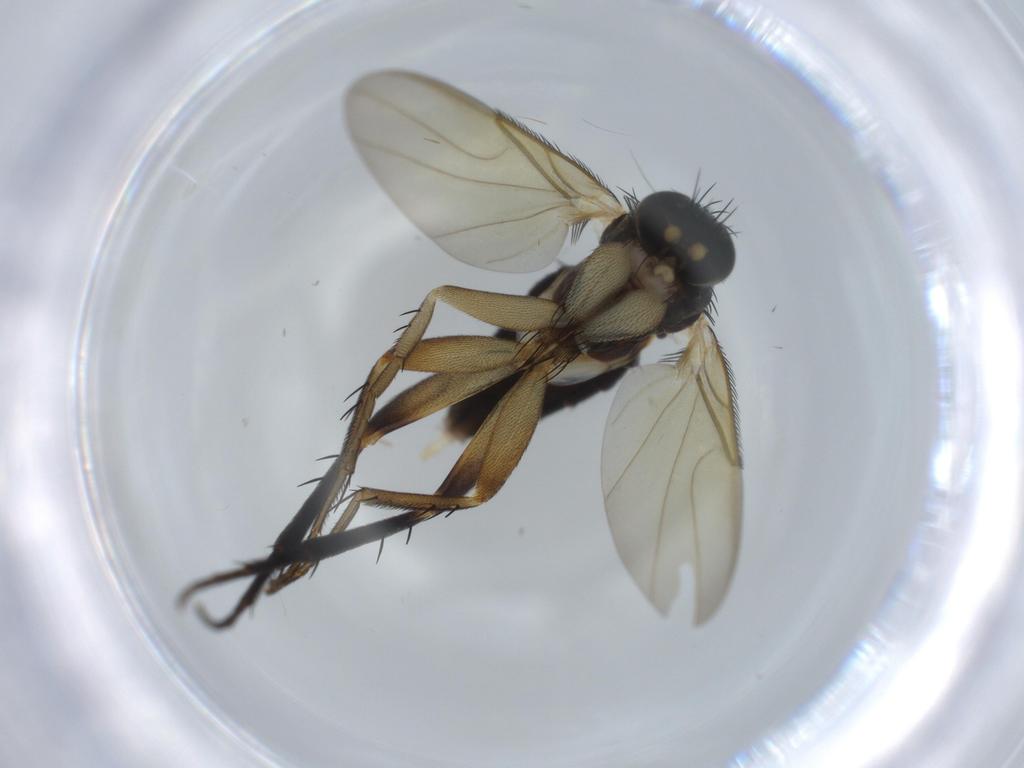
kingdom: Animalia
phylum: Arthropoda
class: Insecta
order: Diptera
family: Phoridae
